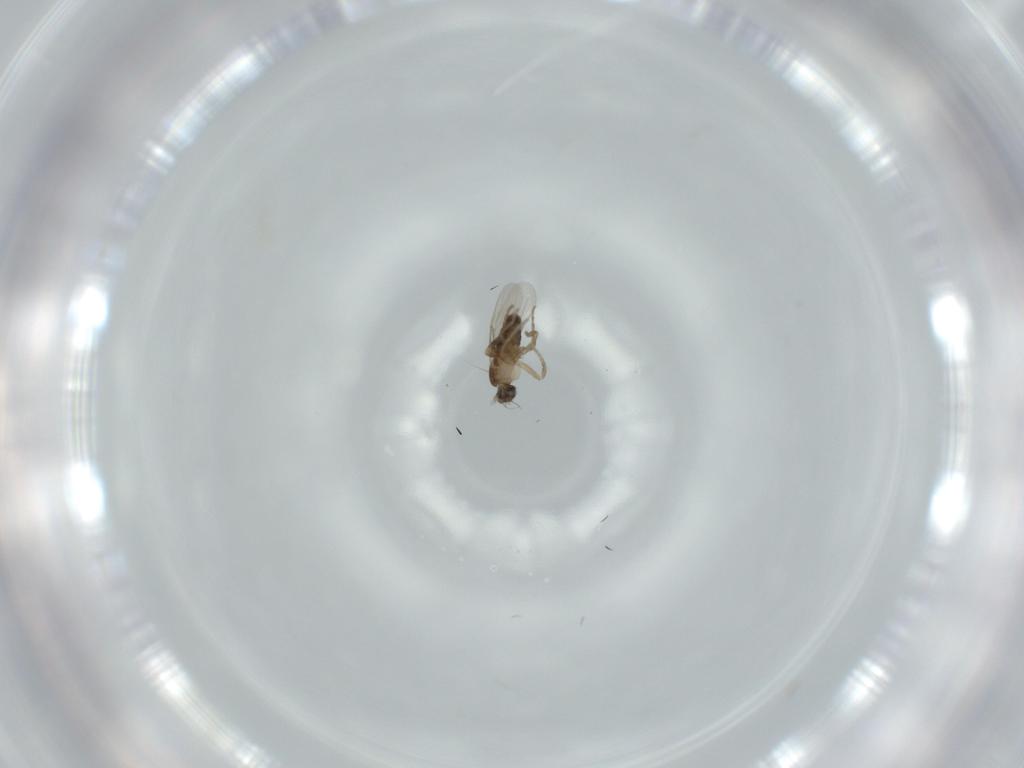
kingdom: Animalia
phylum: Arthropoda
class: Insecta
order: Diptera
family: Phoridae
